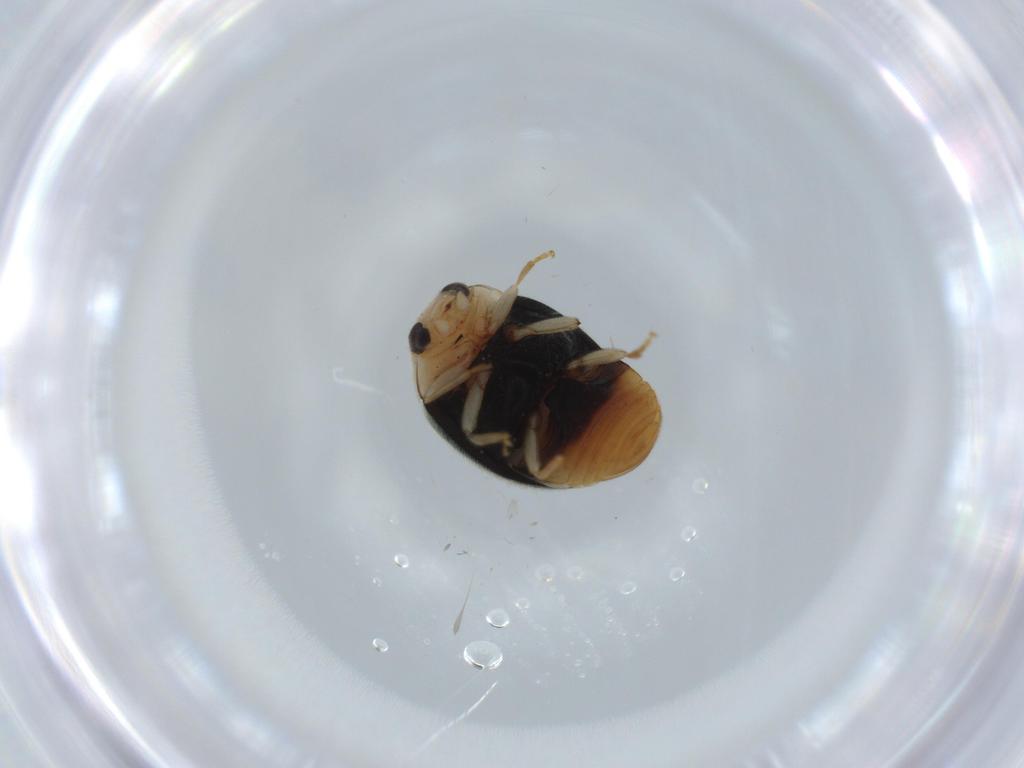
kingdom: Animalia
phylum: Arthropoda
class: Insecta
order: Coleoptera
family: Coccinellidae
